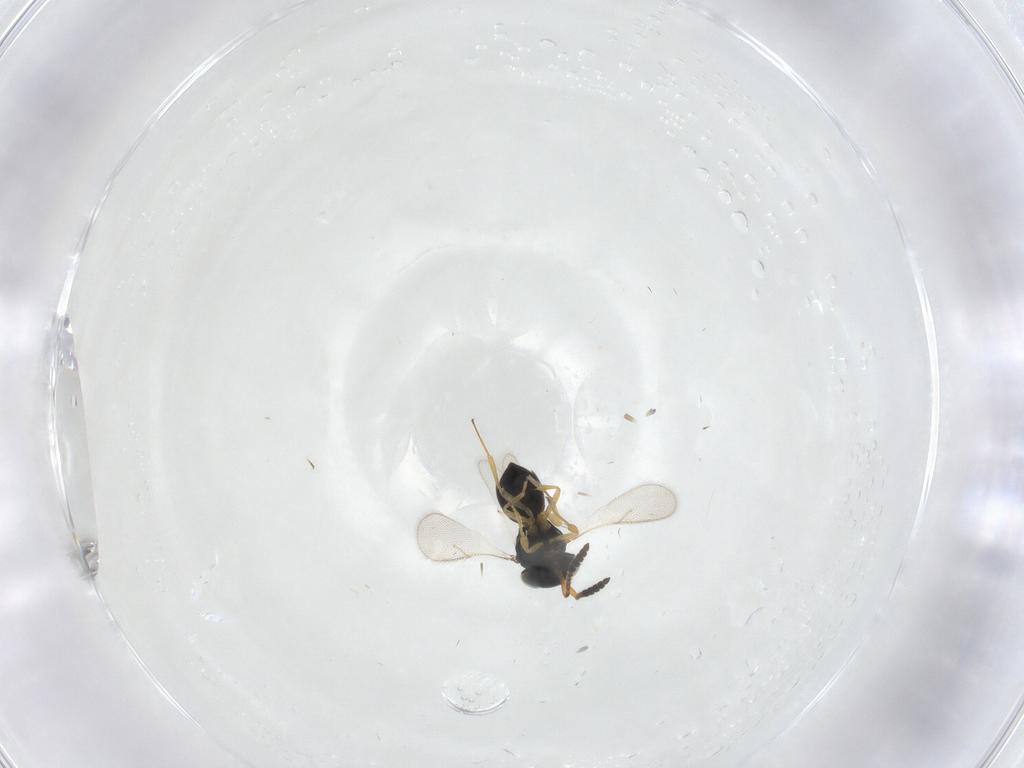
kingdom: Animalia
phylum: Arthropoda
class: Insecta
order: Hymenoptera
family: Scelionidae
